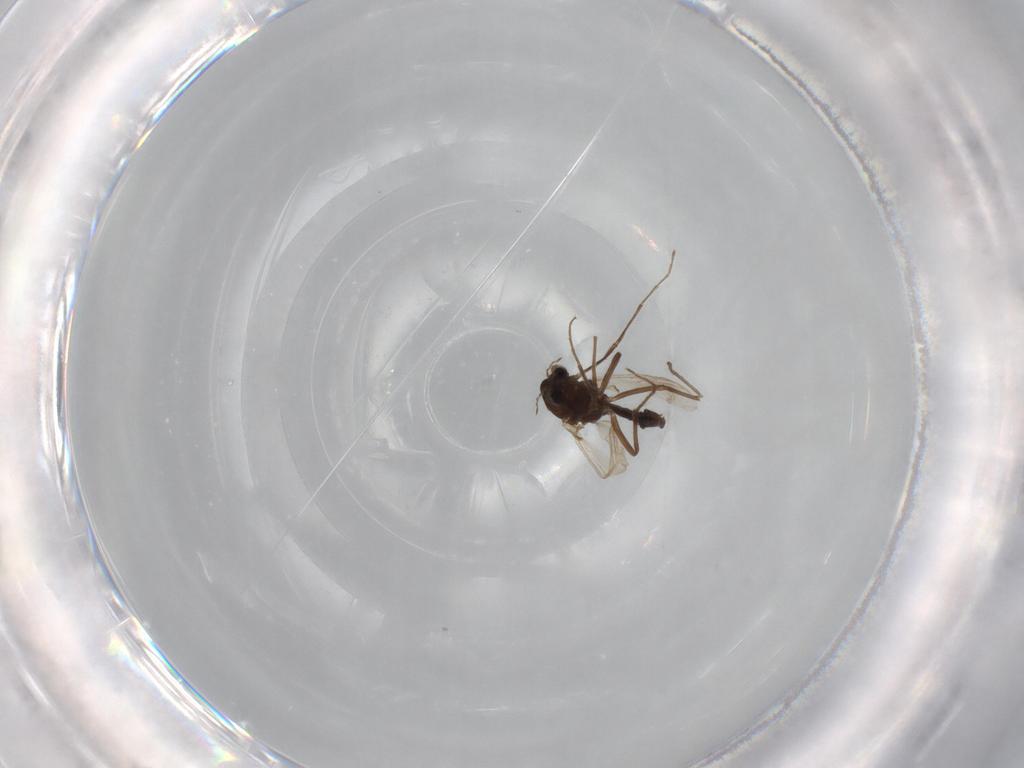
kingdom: Animalia
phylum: Arthropoda
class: Insecta
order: Diptera
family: Chironomidae
